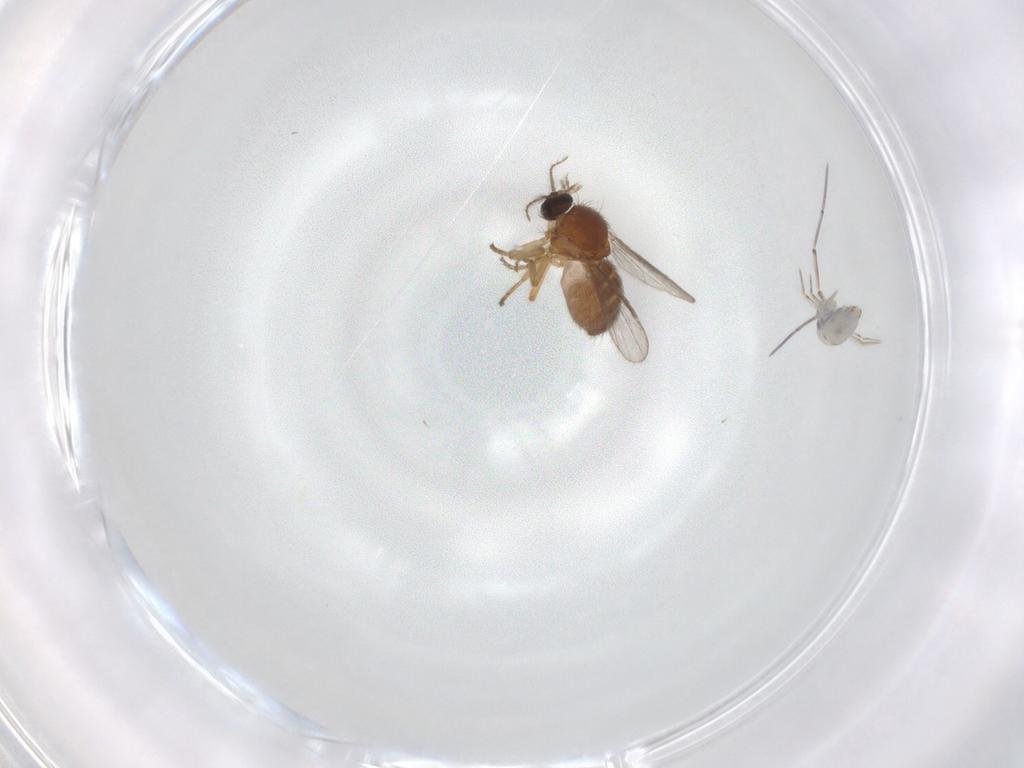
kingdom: Animalia
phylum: Arthropoda
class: Insecta
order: Diptera
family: Ceratopogonidae
